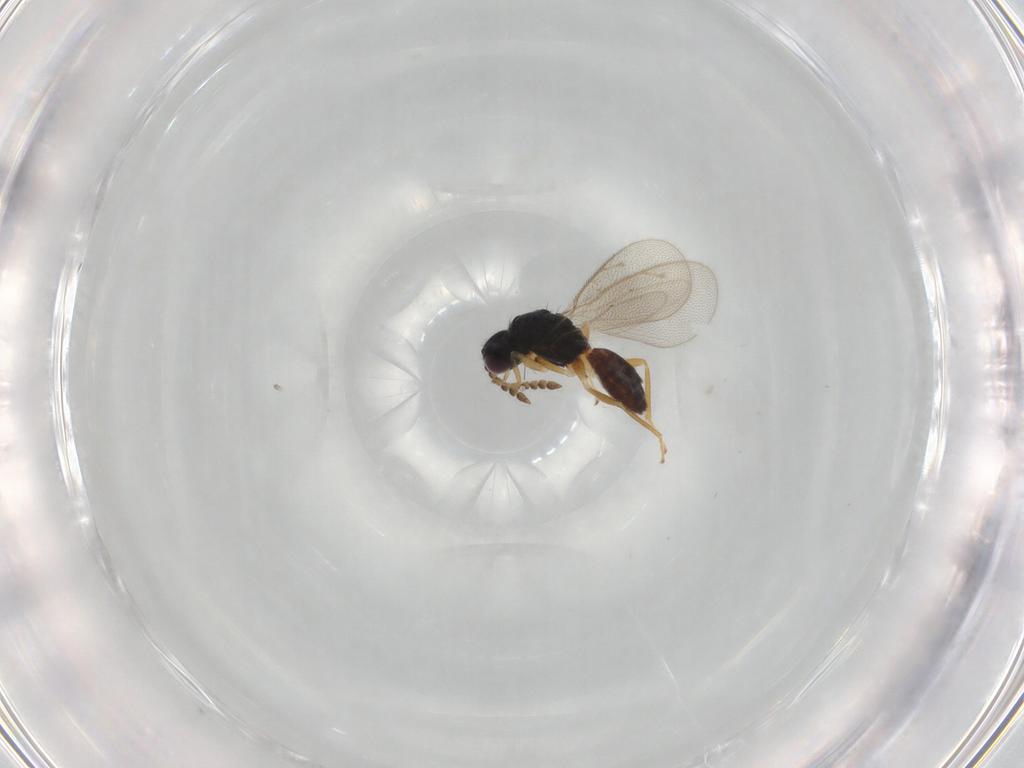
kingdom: Animalia
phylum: Arthropoda
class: Insecta
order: Hymenoptera
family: Eulophidae
